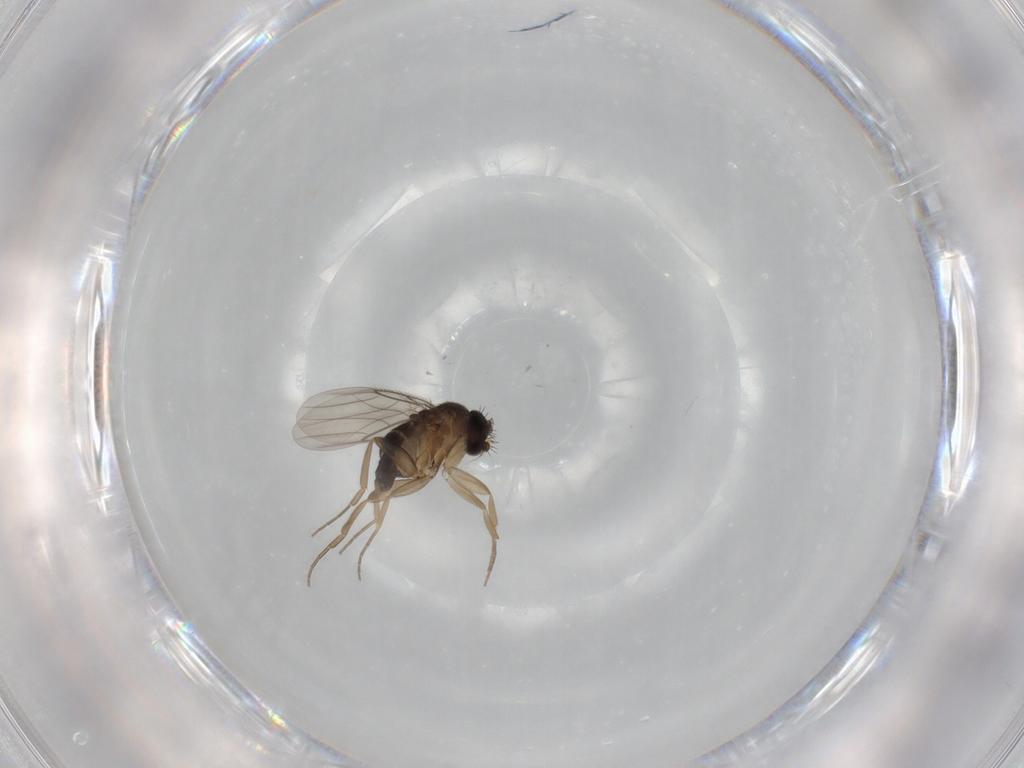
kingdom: Animalia
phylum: Arthropoda
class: Insecta
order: Diptera
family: Phoridae
